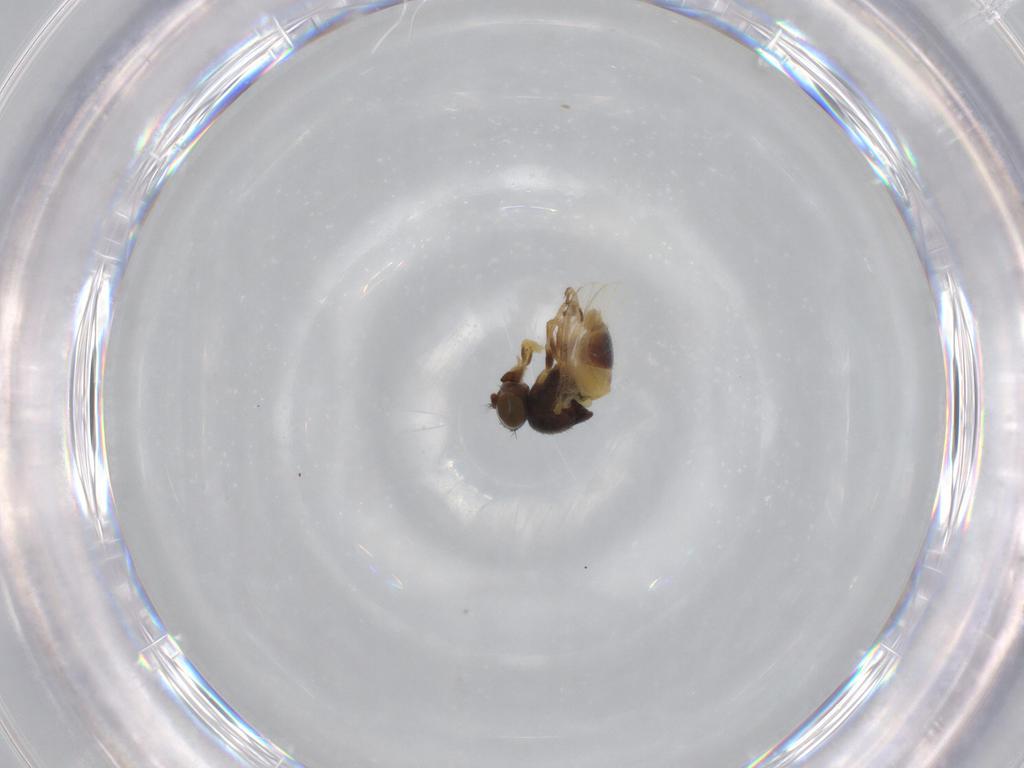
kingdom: Animalia
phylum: Arthropoda
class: Insecta
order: Diptera
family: Ephydridae
